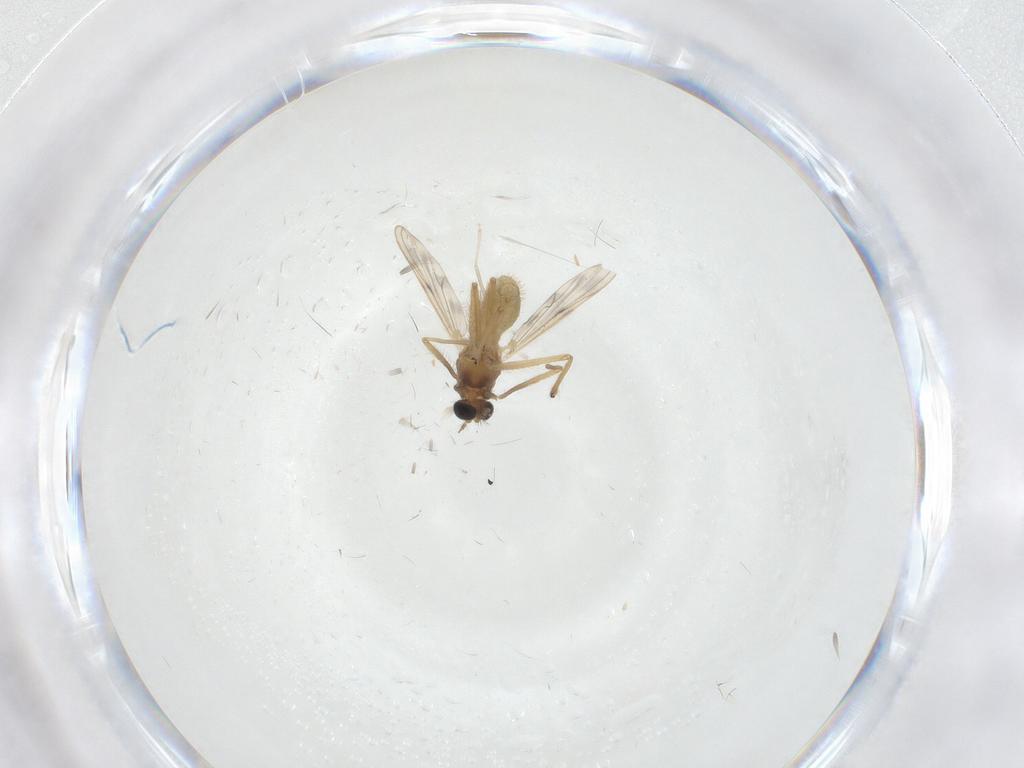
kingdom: Animalia
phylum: Arthropoda
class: Insecta
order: Diptera
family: Chironomidae
